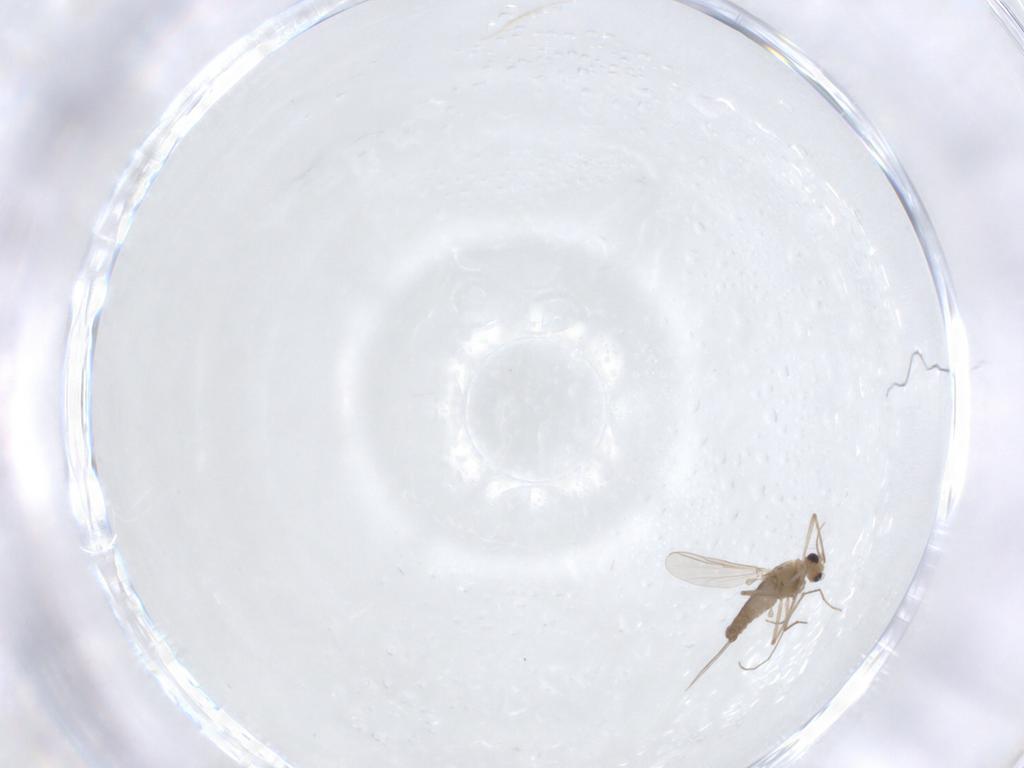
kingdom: Animalia
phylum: Arthropoda
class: Insecta
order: Diptera
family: Chironomidae
